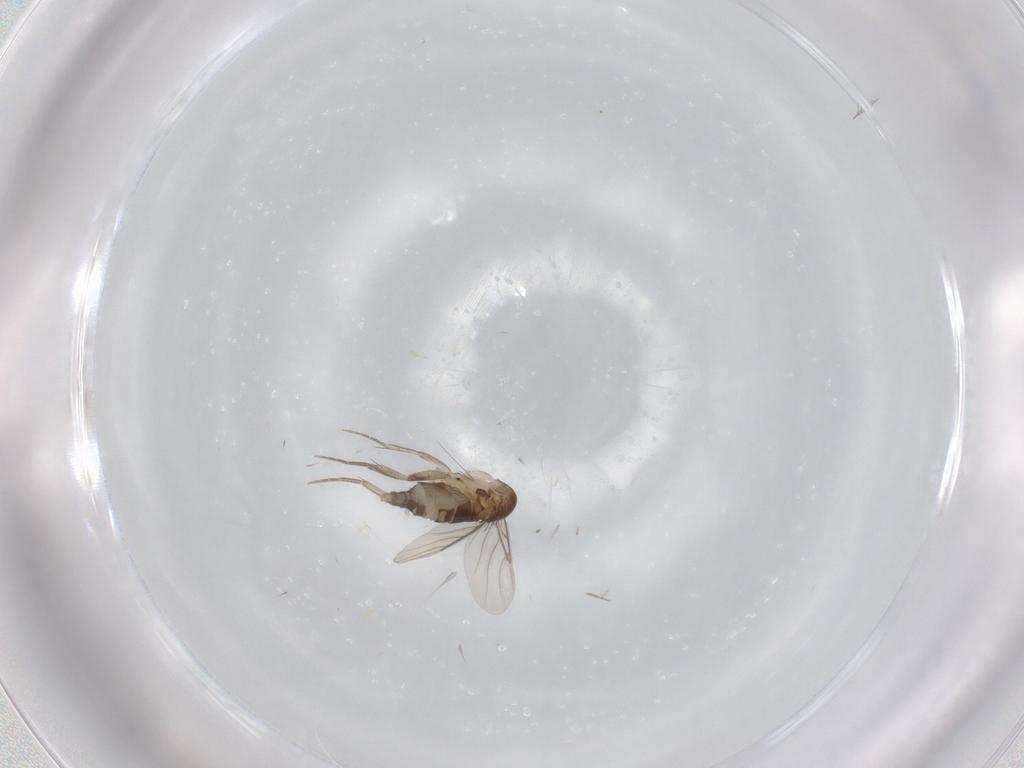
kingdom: Animalia
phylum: Arthropoda
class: Insecta
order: Diptera
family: Phoridae
